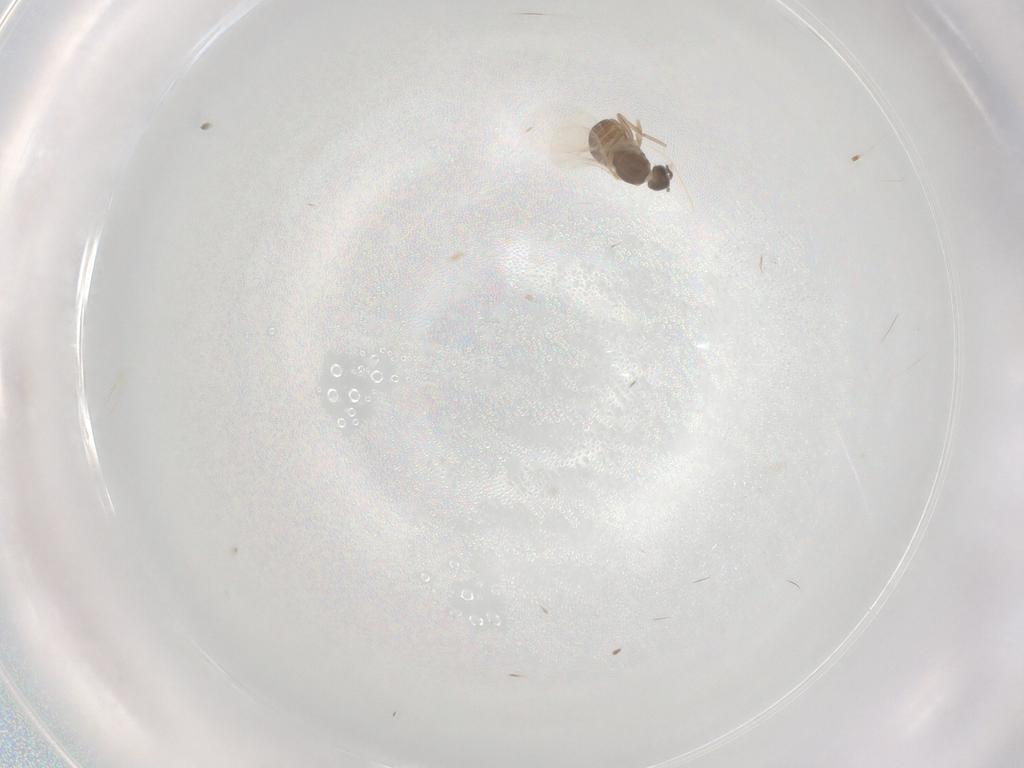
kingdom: Animalia
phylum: Arthropoda
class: Insecta
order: Diptera
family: Cecidomyiidae
